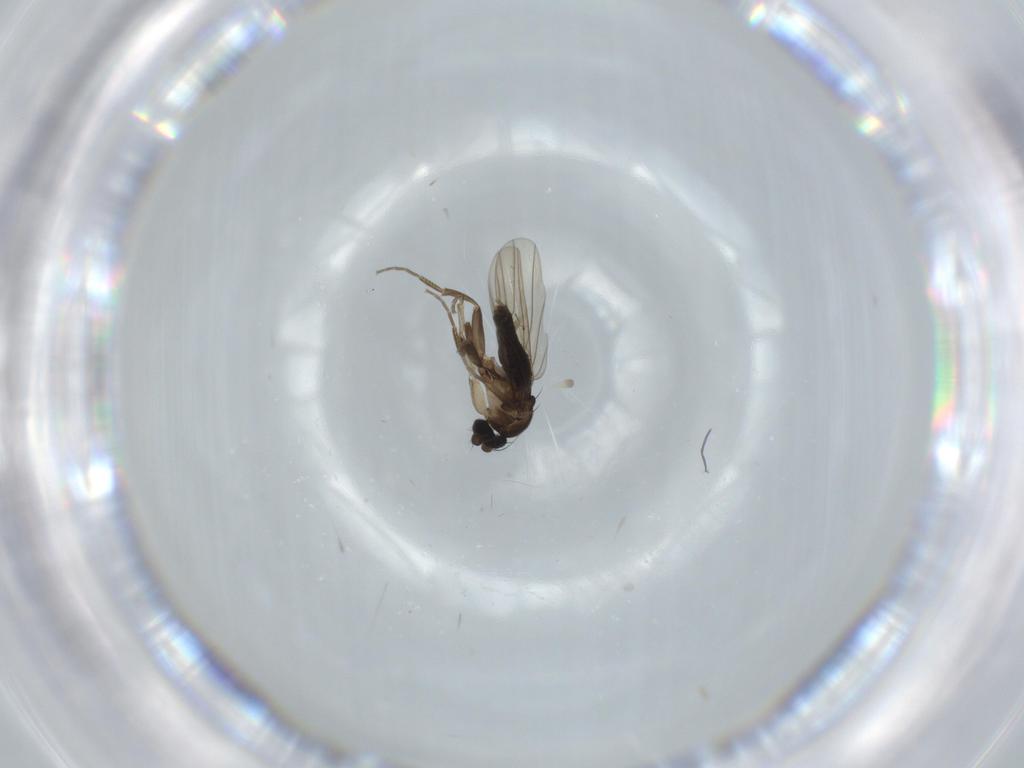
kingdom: Animalia
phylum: Arthropoda
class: Insecta
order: Diptera
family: Phoridae
